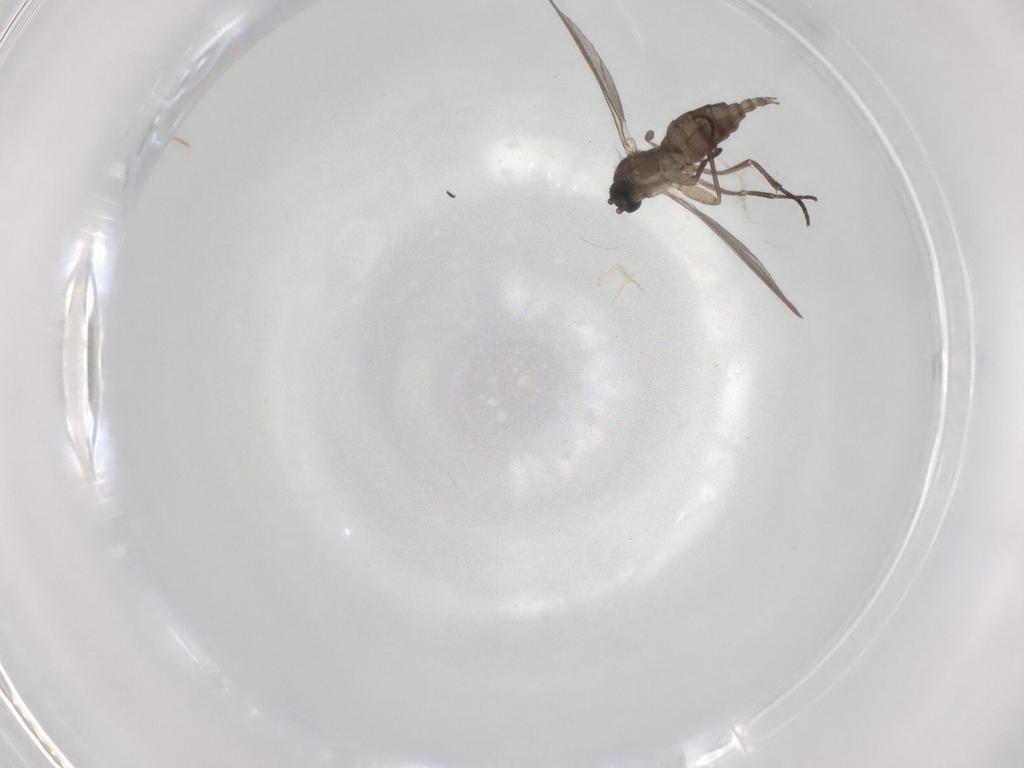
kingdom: Animalia
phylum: Arthropoda
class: Insecta
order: Diptera
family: Sciaridae
